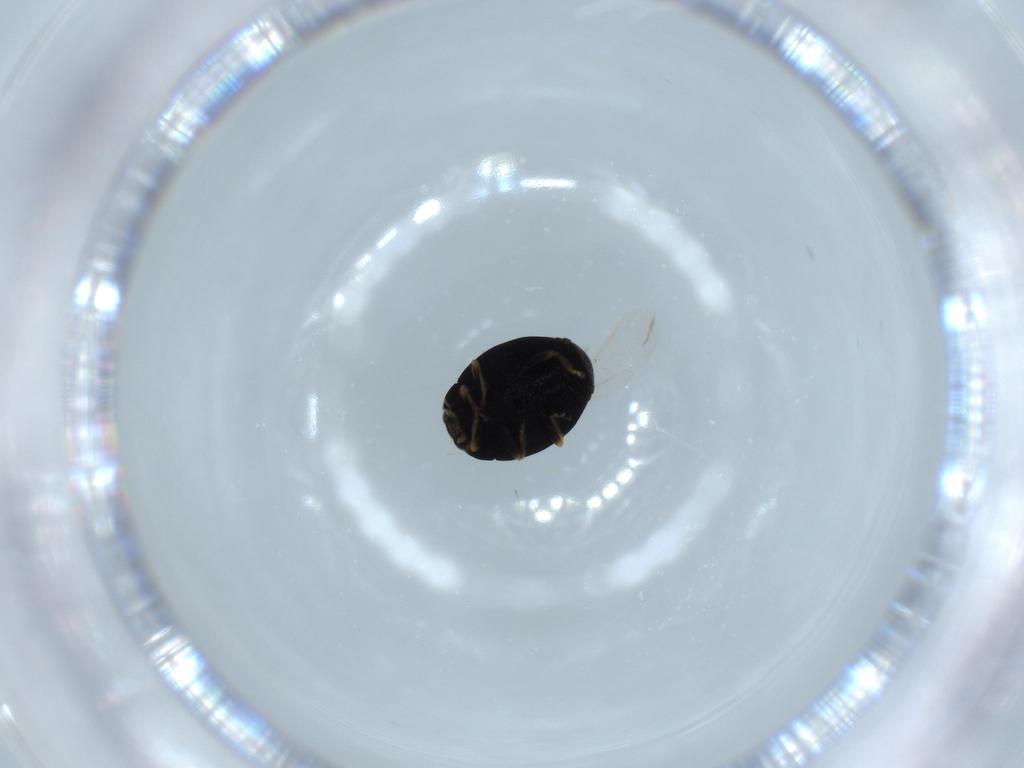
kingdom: Animalia
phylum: Arthropoda
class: Insecta
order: Coleoptera
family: Coccinellidae
